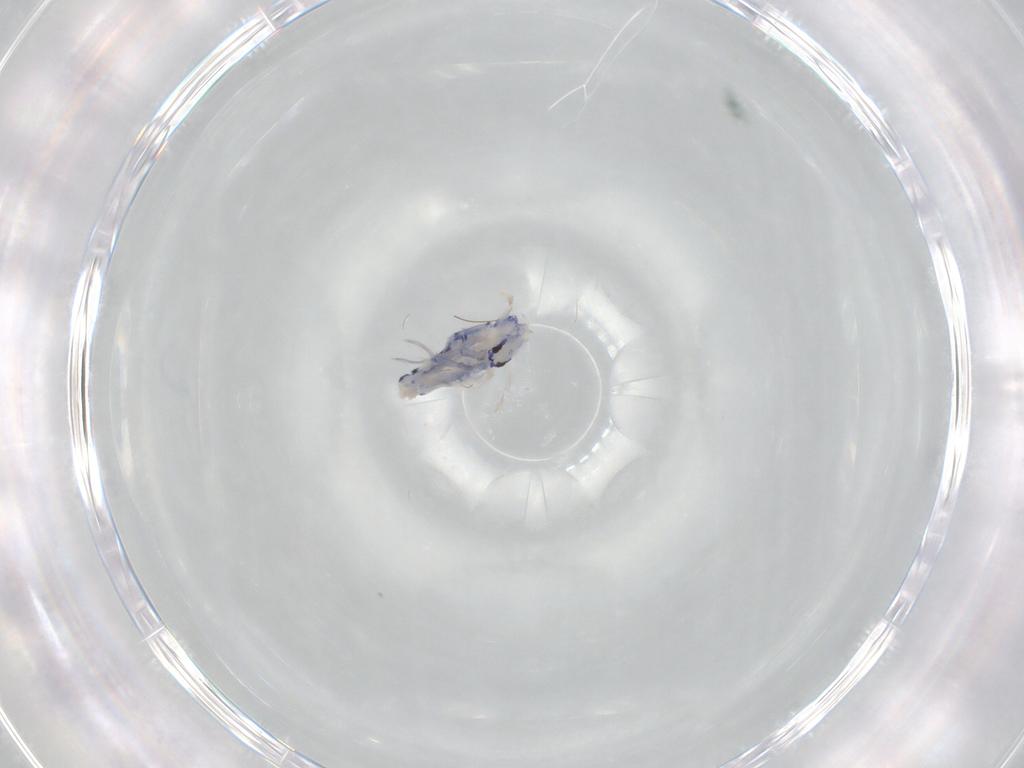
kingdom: Animalia
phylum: Arthropoda
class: Collembola
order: Entomobryomorpha
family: Entomobryidae
